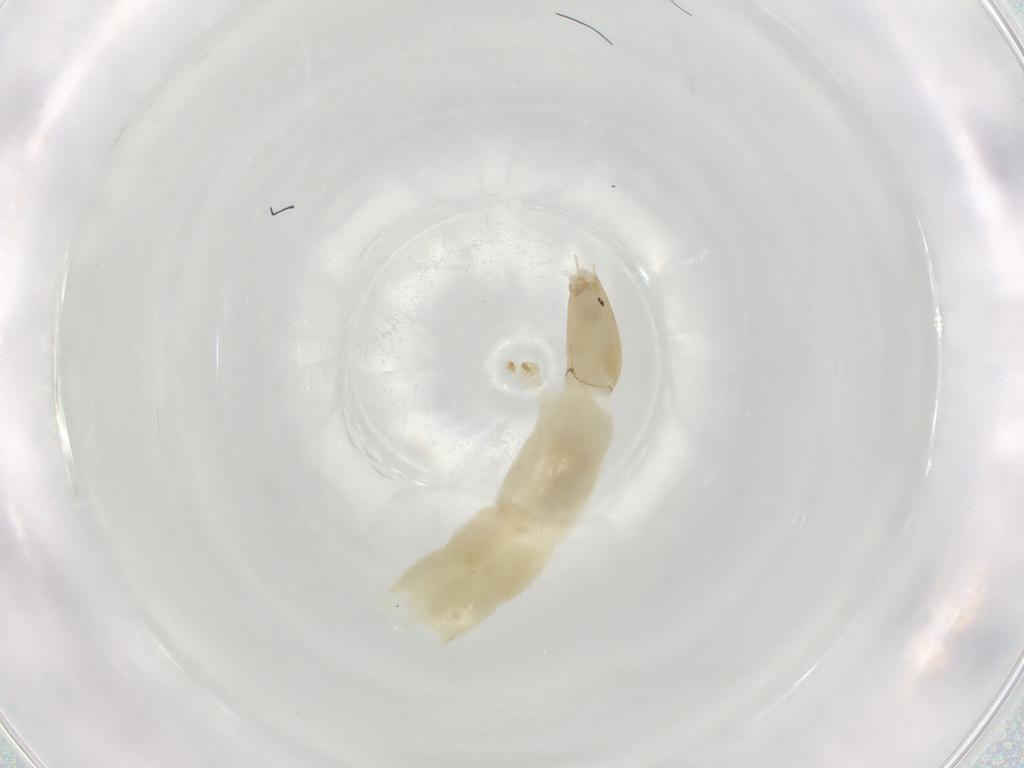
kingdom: Animalia
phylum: Arthropoda
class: Insecta
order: Diptera
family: Chironomidae
